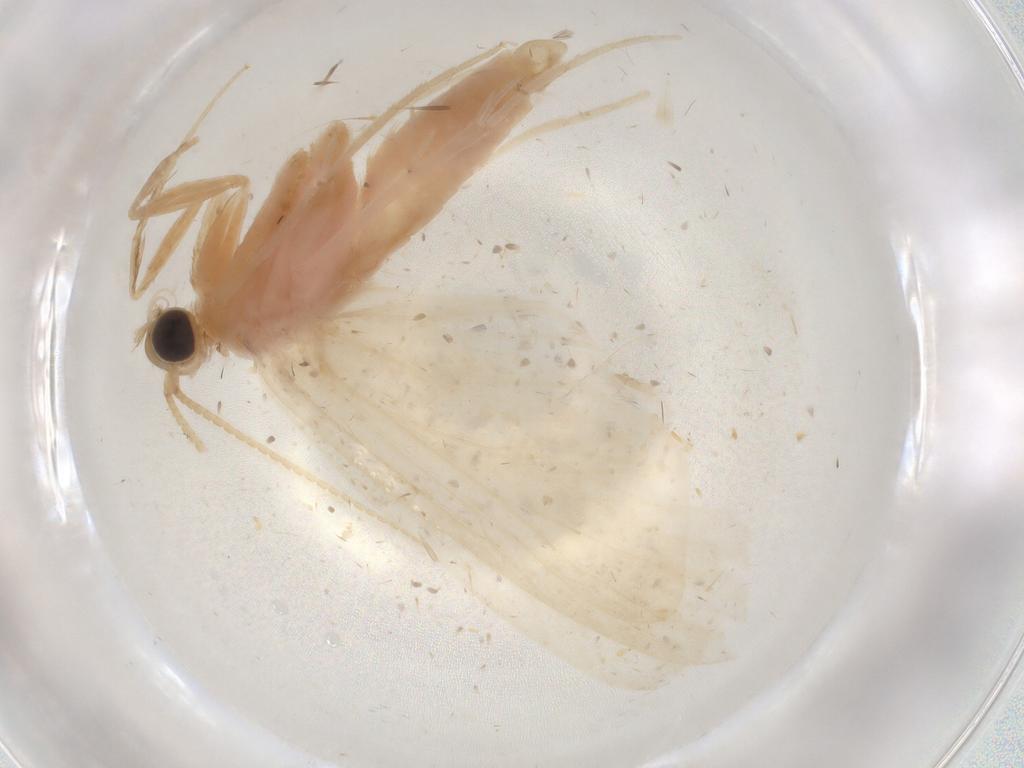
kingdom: Animalia
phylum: Arthropoda
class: Insecta
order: Lepidoptera
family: Crambidae
